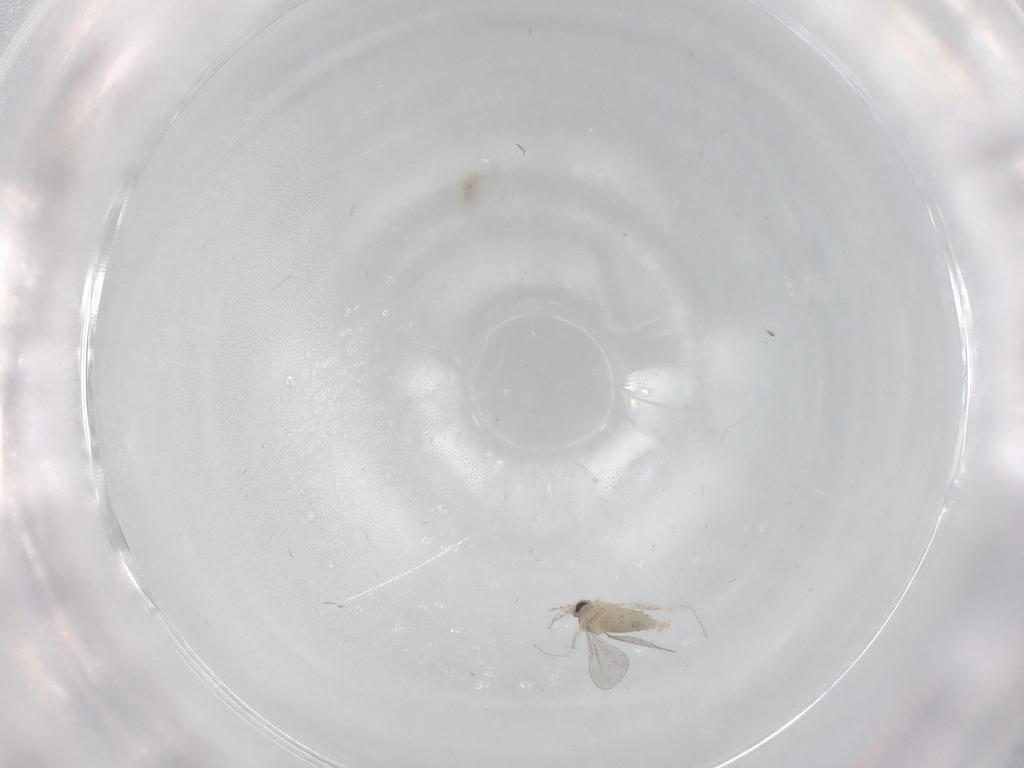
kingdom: Animalia
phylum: Arthropoda
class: Insecta
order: Diptera
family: Cecidomyiidae
